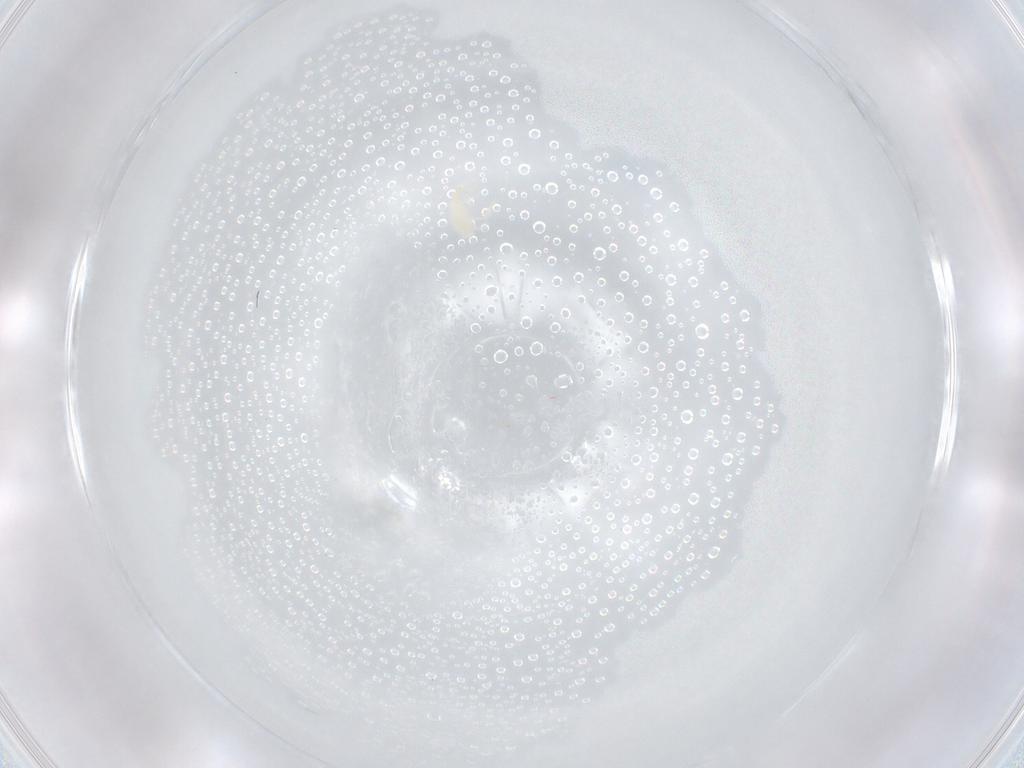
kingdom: Animalia
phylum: Arthropoda
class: Arachnida
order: Trombidiformes
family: Erythraeidae
